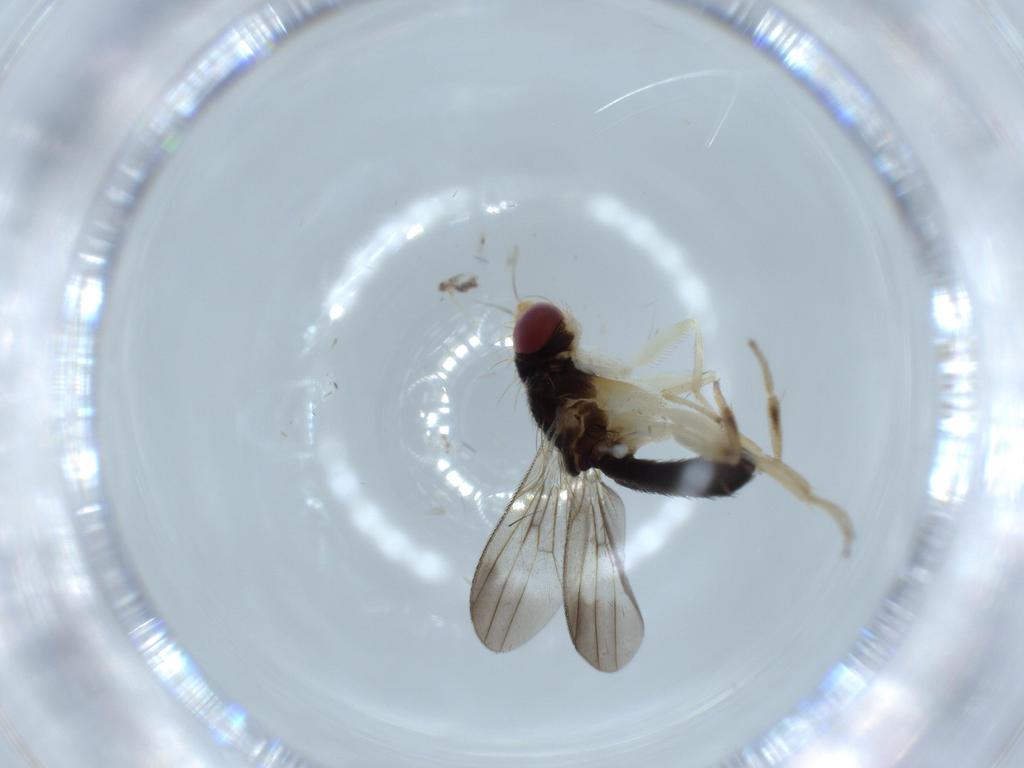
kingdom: Animalia
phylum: Arthropoda
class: Insecta
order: Diptera
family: Clusiidae
